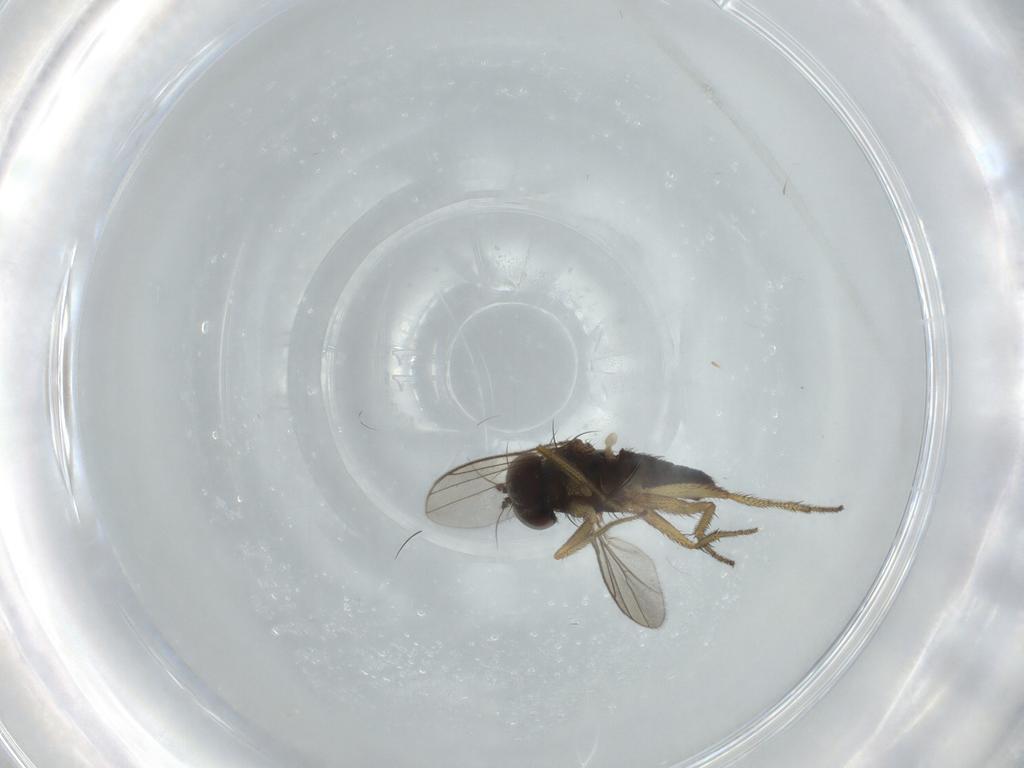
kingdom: Animalia
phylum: Arthropoda
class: Insecta
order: Diptera
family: Dolichopodidae
